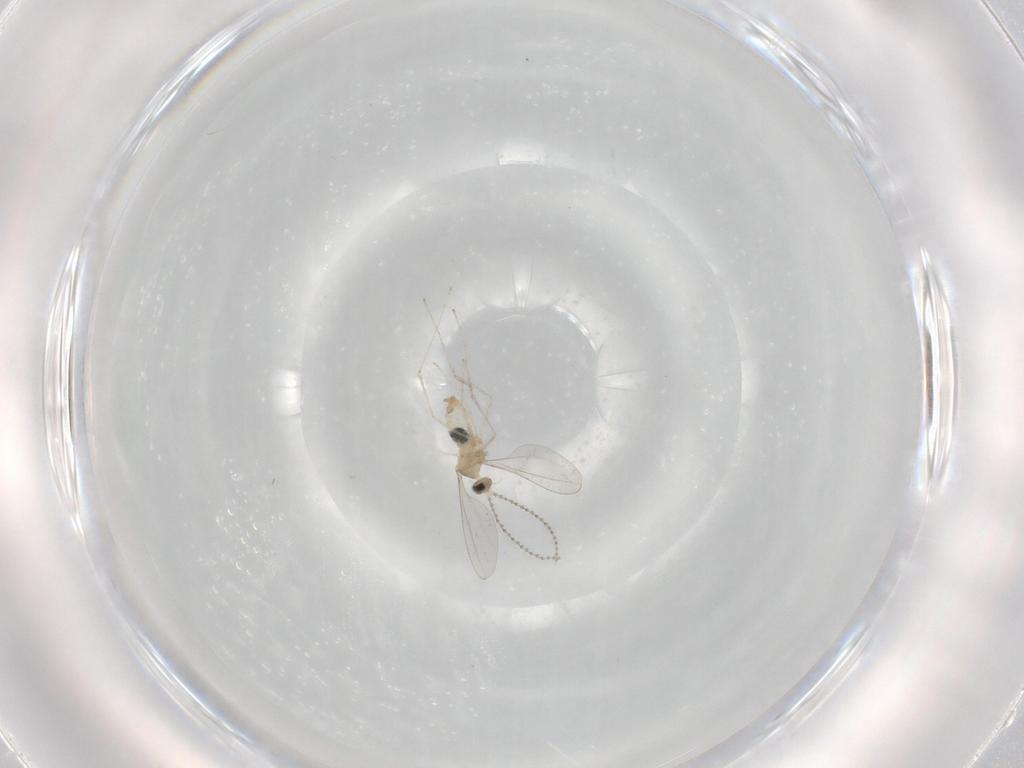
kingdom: Animalia
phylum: Arthropoda
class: Insecta
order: Diptera
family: Cecidomyiidae
